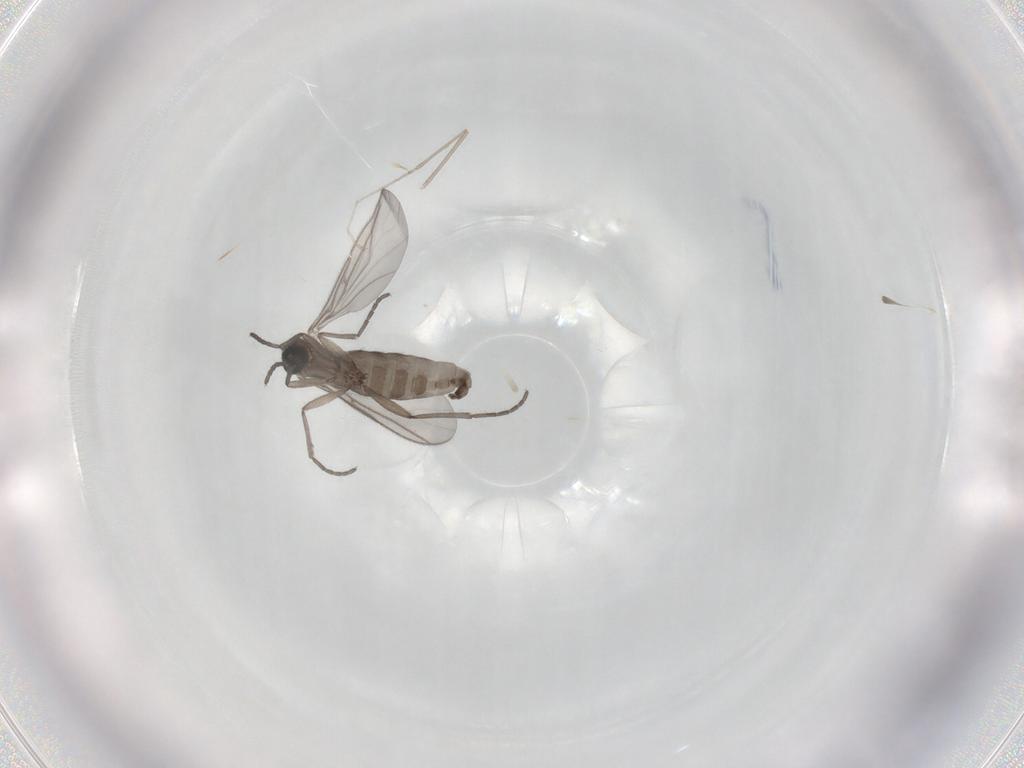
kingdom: Animalia
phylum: Arthropoda
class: Insecta
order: Diptera
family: Cecidomyiidae
